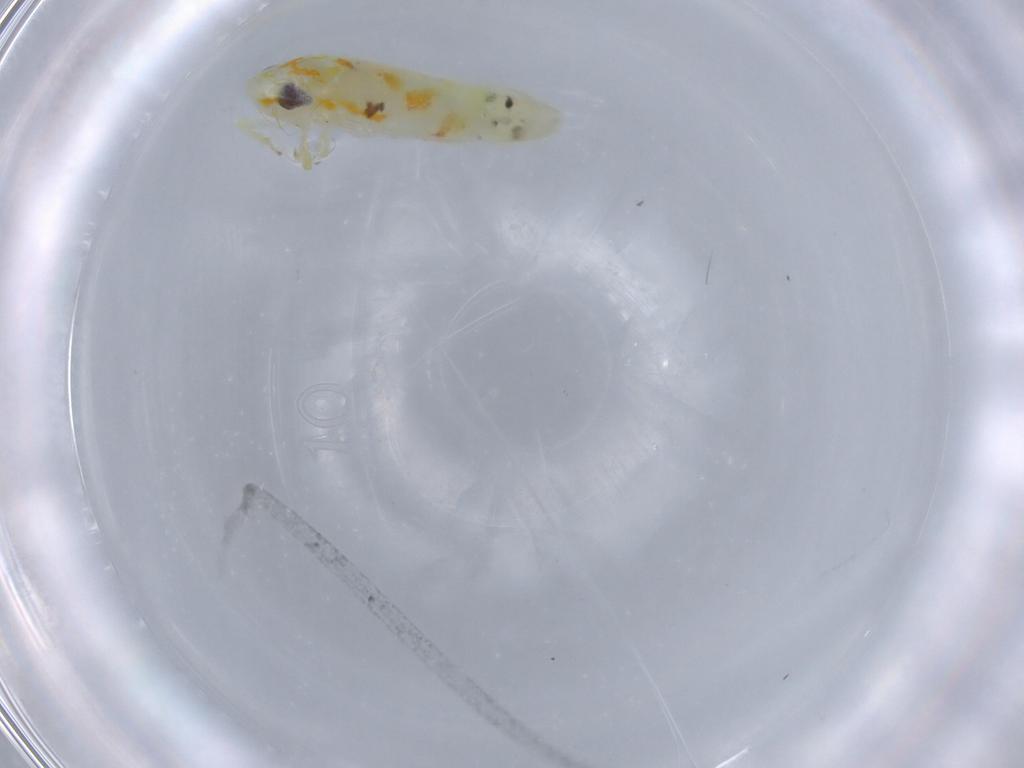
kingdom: Animalia
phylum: Arthropoda
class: Insecta
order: Hemiptera
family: Cicadellidae
